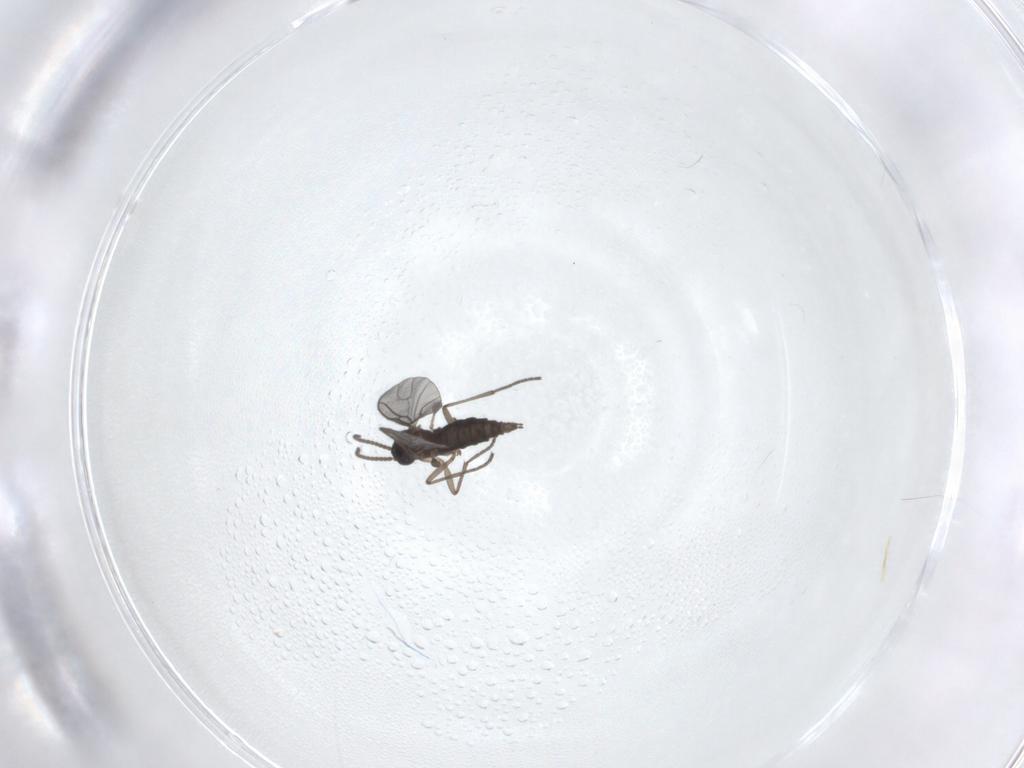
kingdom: Animalia
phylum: Arthropoda
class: Insecta
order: Diptera
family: Sciaridae
